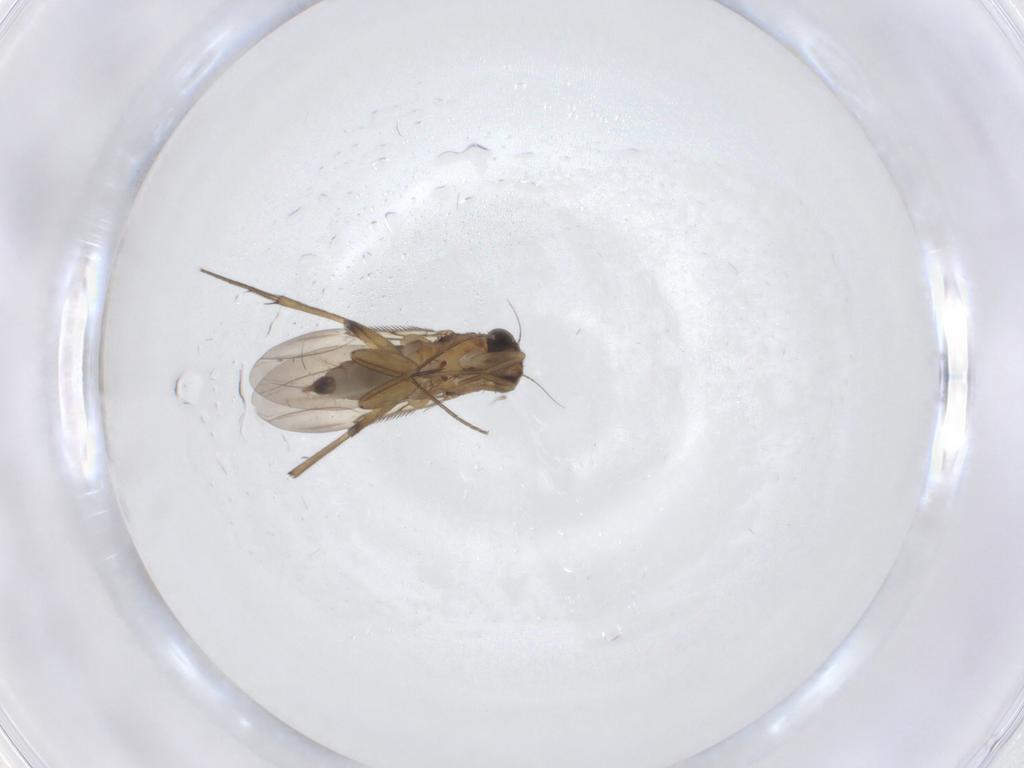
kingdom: Animalia
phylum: Arthropoda
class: Insecta
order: Diptera
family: Phoridae
